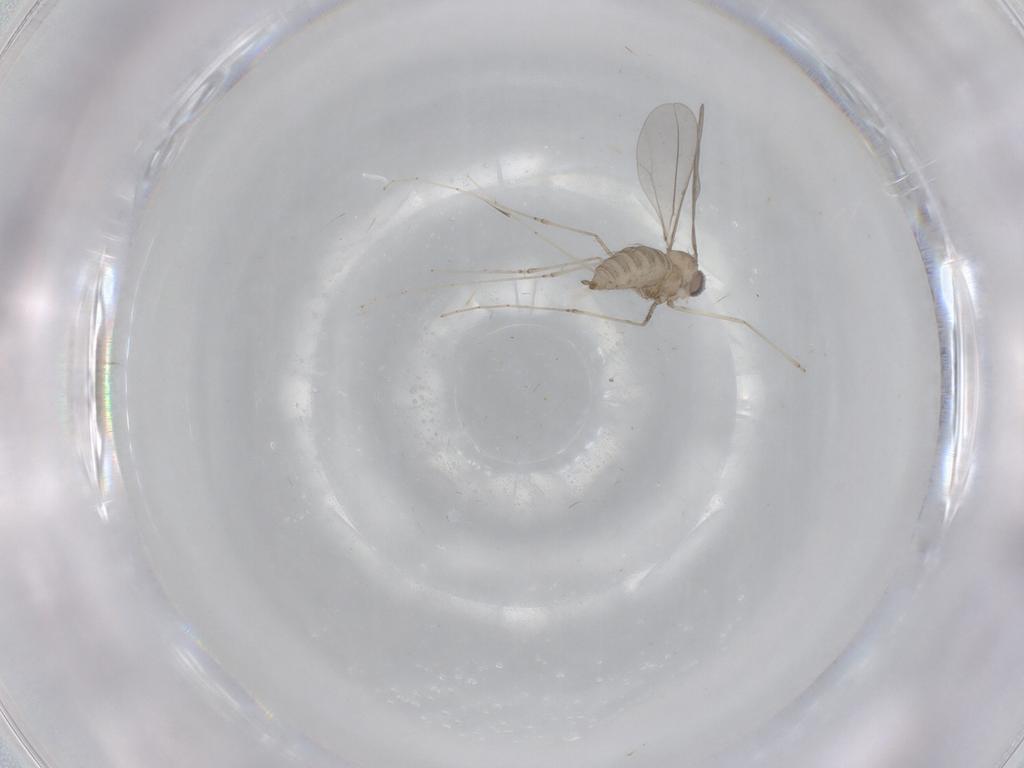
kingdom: Animalia
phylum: Arthropoda
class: Insecta
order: Diptera
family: Cecidomyiidae
